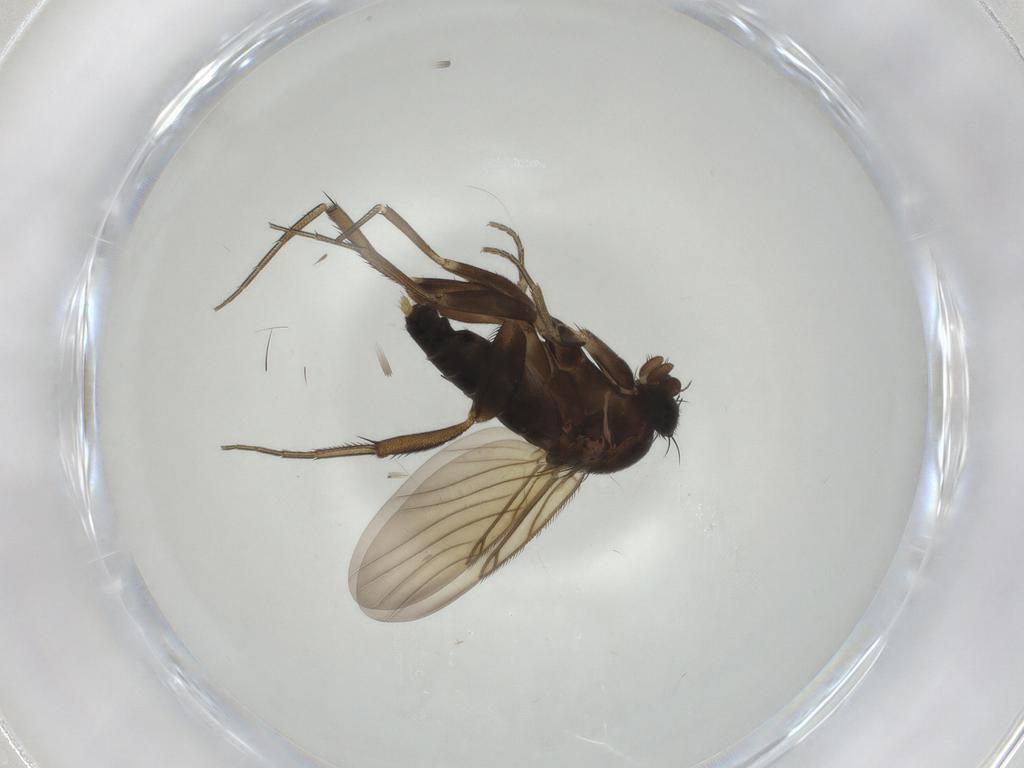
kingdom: Animalia
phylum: Arthropoda
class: Insecta
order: Diptera
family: Phoridae
